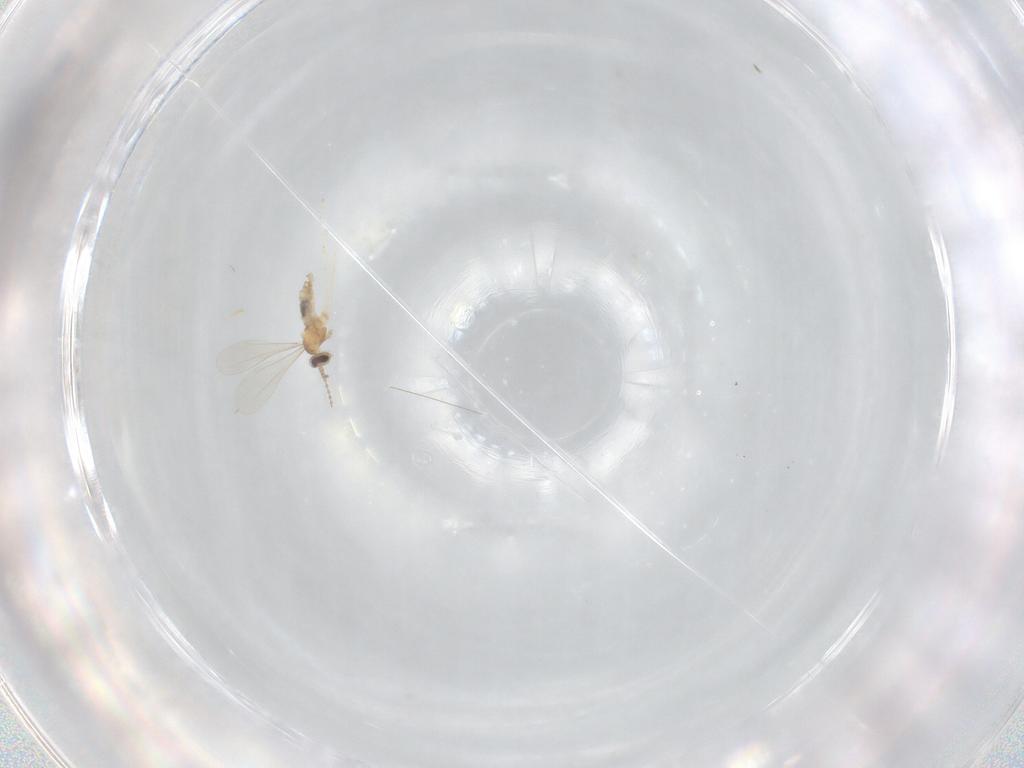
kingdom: Animalia
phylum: Arthropoda
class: Insecta
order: Diptera
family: Cecidomyiidae
